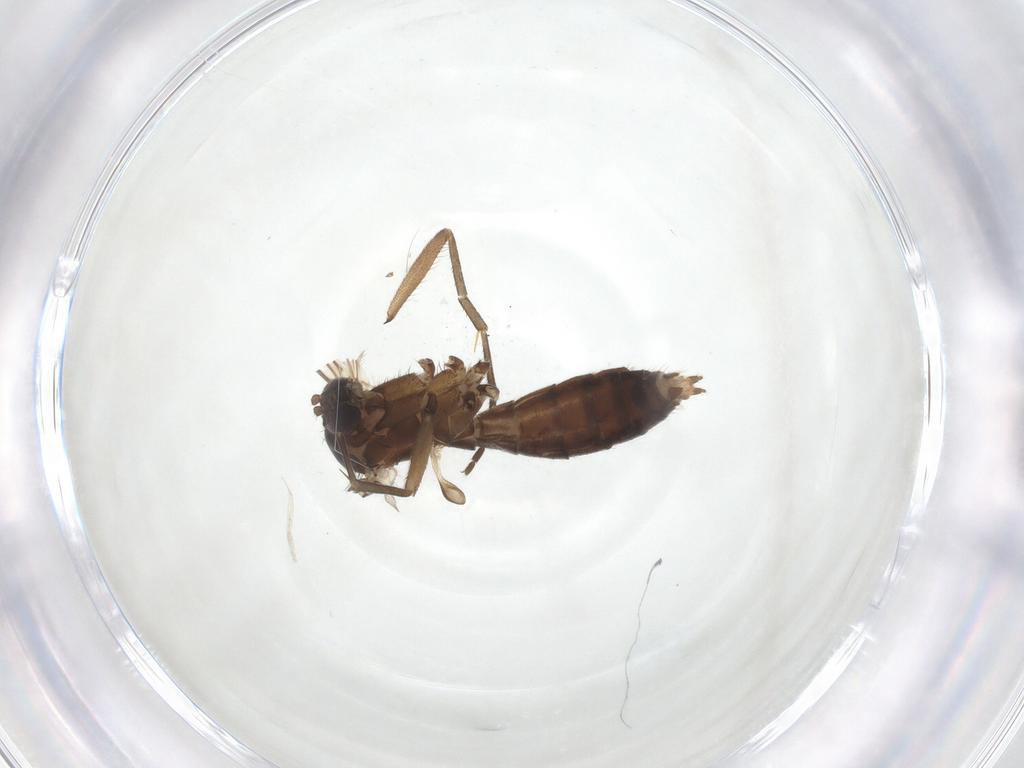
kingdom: Animalia
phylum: Arthropoda
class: Insecta
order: Diptera
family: Mycetophilidae
